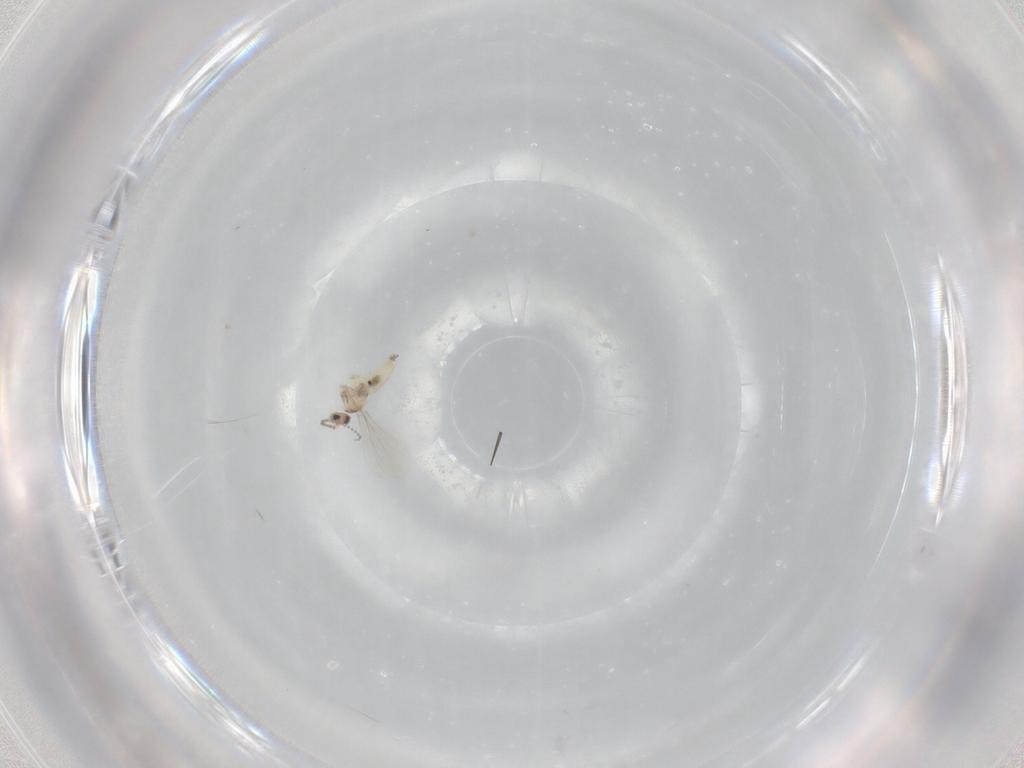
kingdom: Animalia
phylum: Arthropoda
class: Insecta
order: Diptera
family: Cecidomyiidae
